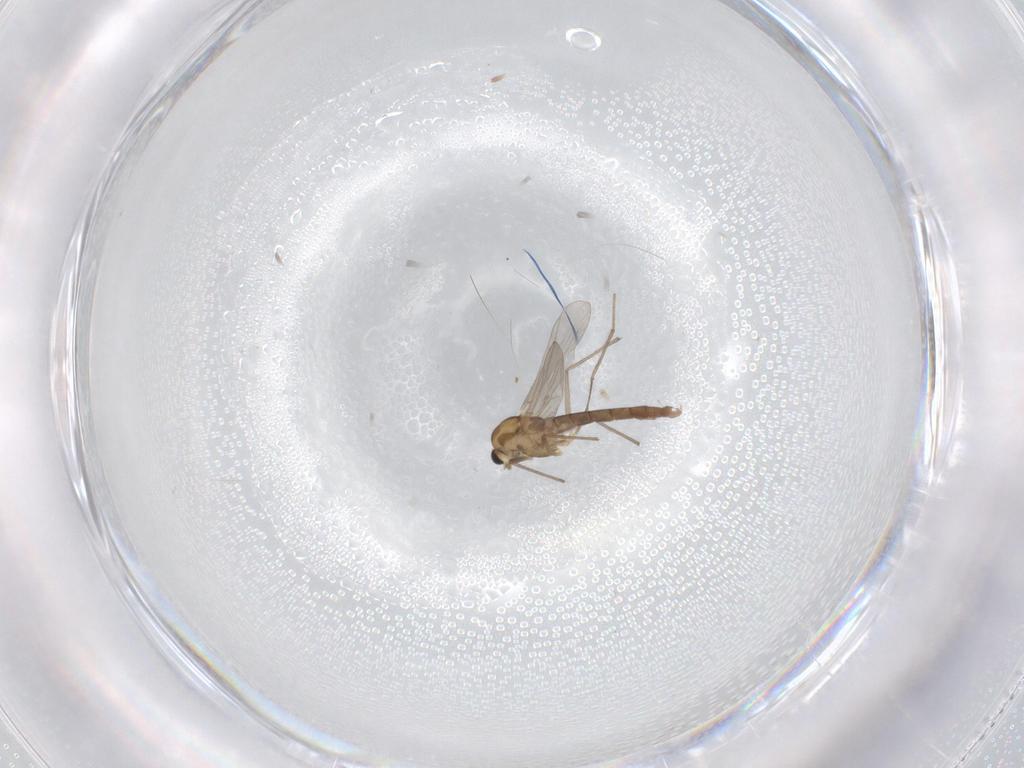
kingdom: Animalia
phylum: Arthropoda
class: Insecta
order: Diptera
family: Chironomidae
